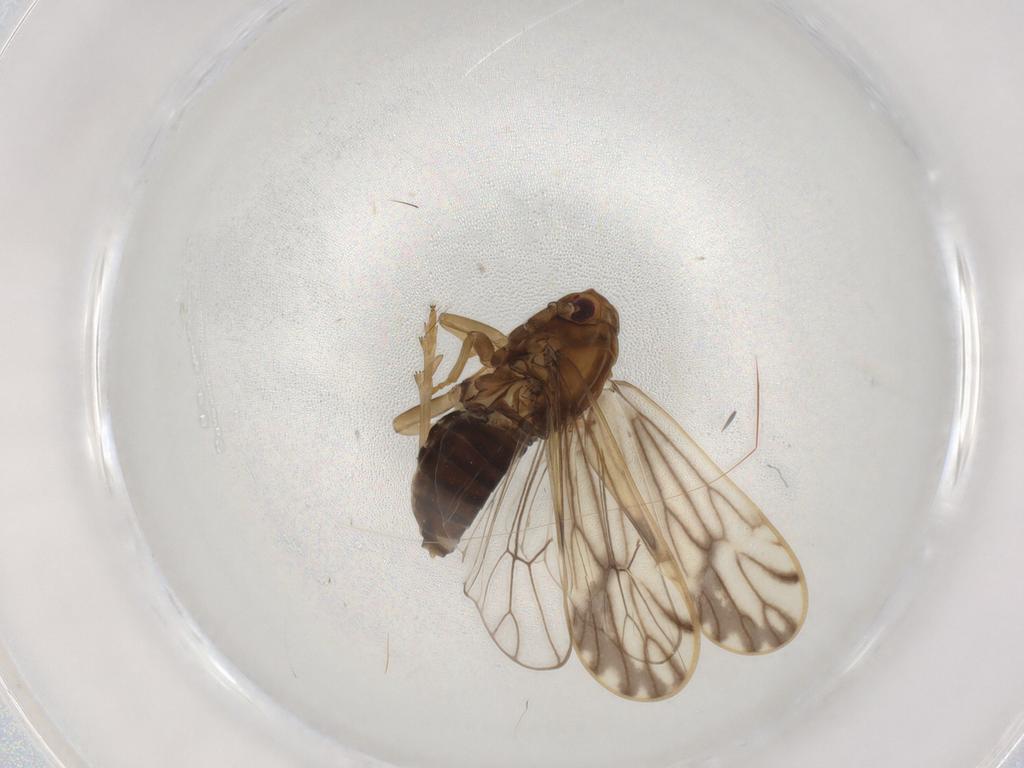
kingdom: Animalia
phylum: Arthropoda
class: Insecta
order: Hemiptera
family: Delphacidae
